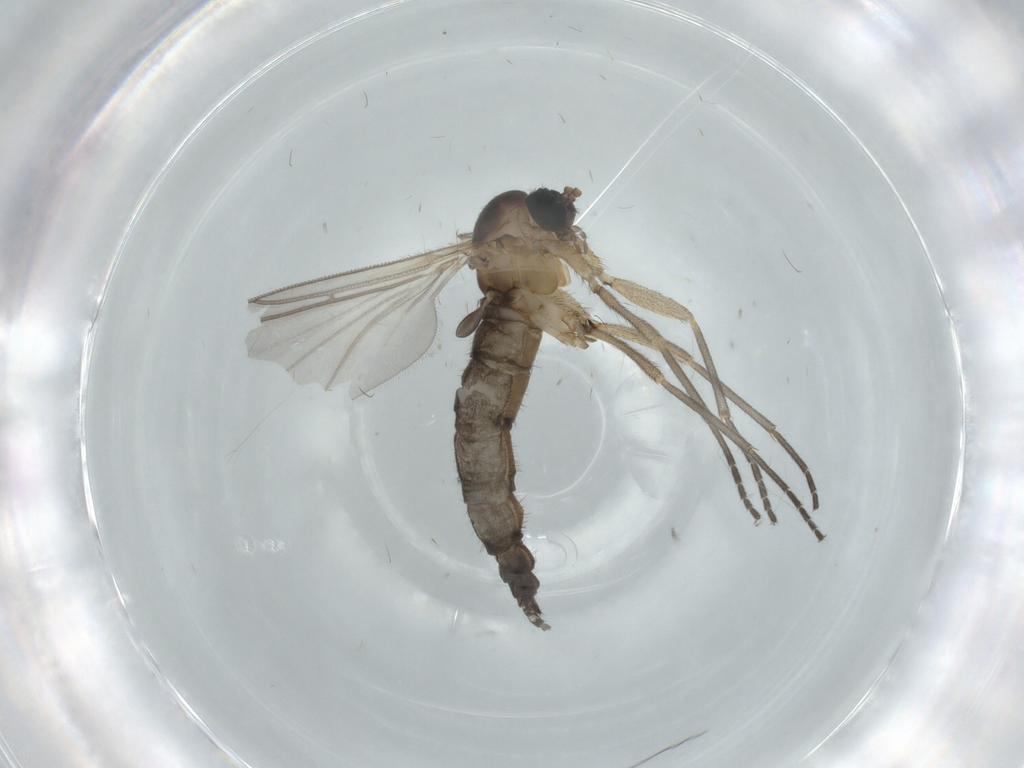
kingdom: Animalia
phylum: Arthropoda
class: Insecta
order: Diptera
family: Sciaridae
